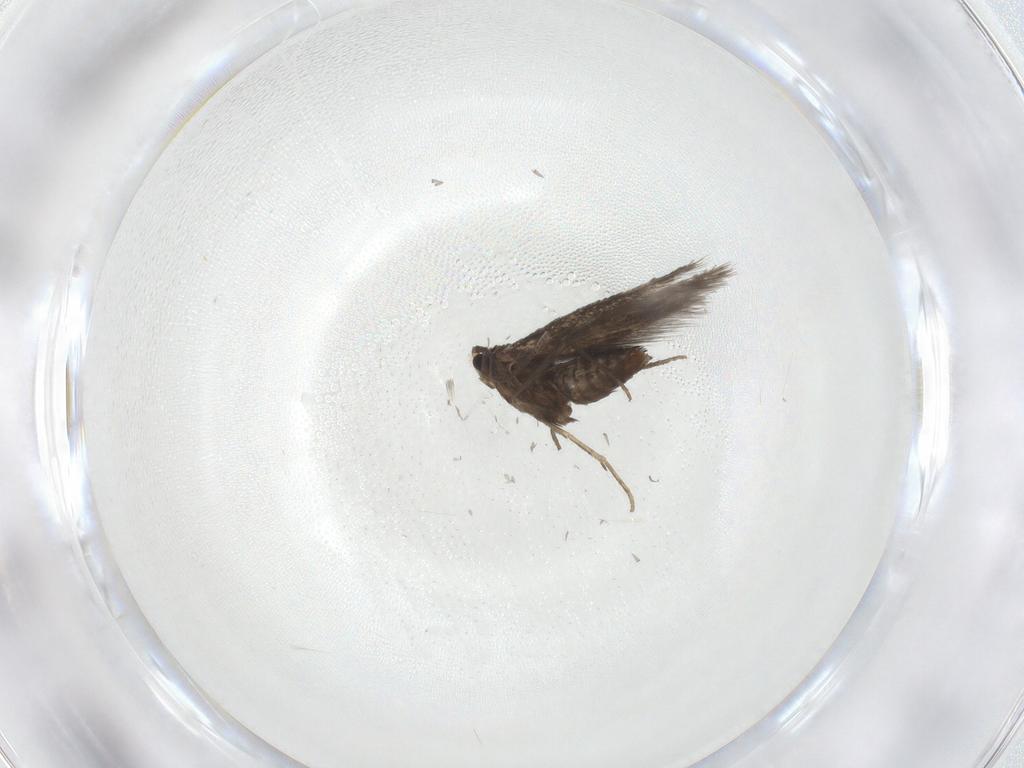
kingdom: Animalia
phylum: Arthropoda
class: Insecta
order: Lepidoptera
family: Nepticulidae
